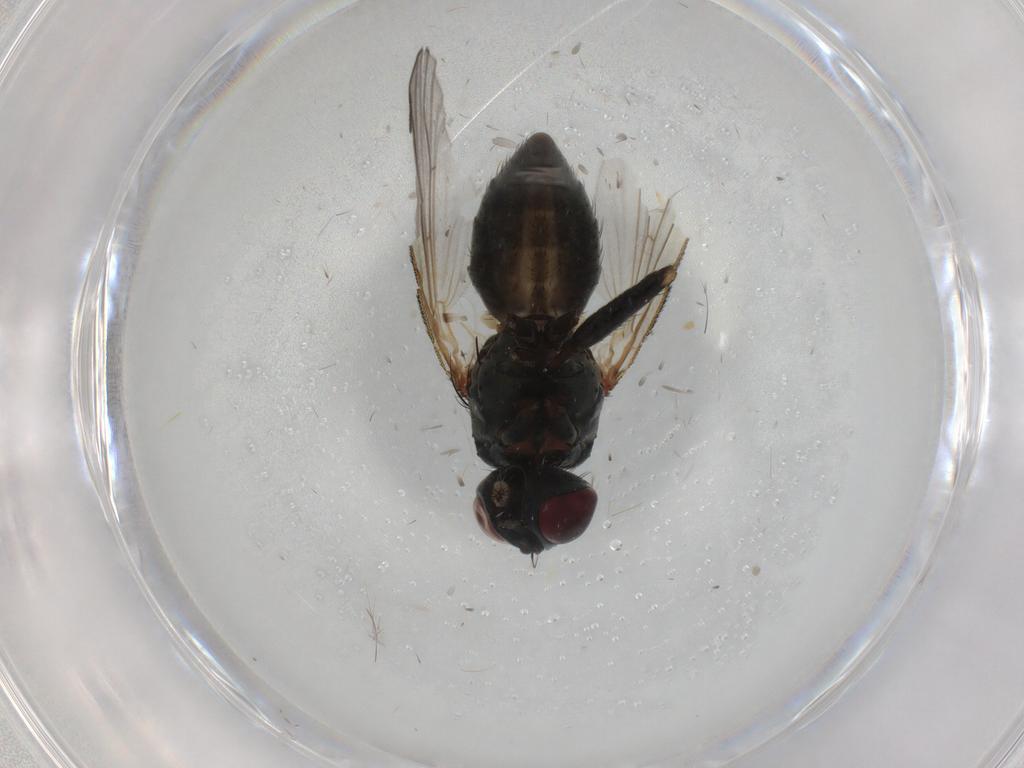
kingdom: Animalia
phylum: Arthropoda
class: Insecta
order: Diptera
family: Muscidae
